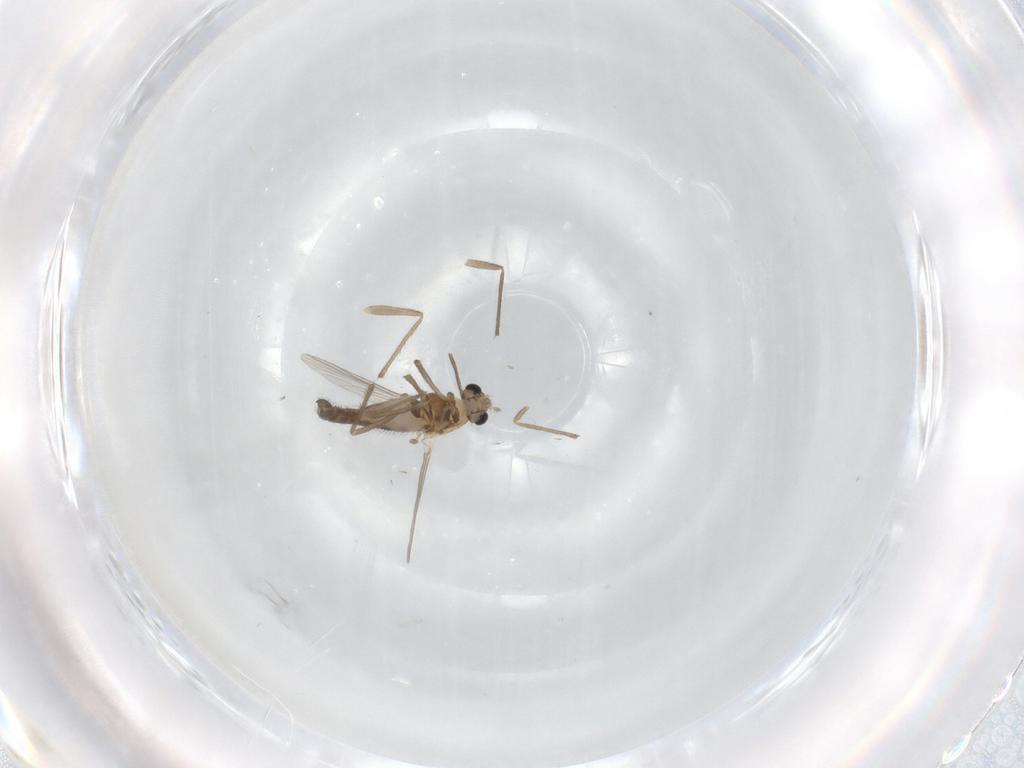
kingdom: Animalia
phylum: Arthropoda
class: Insecta
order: Diptera
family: Chironomidae
